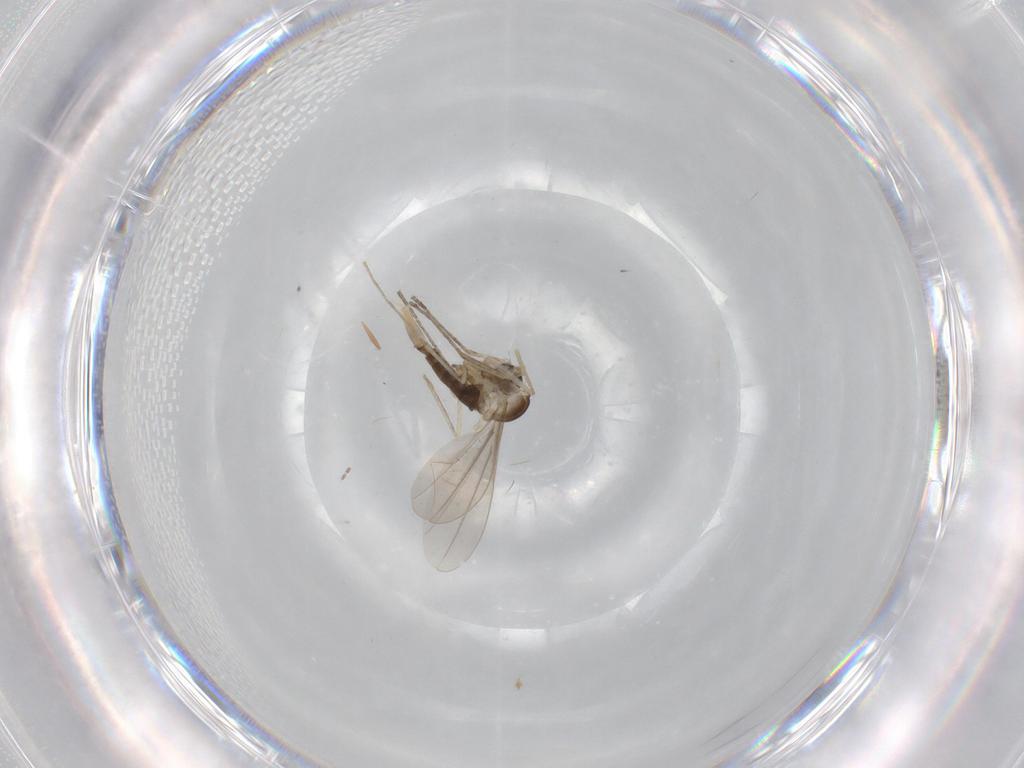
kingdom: Animalia
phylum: Arthropoda
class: Insecta
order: Diptera
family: Cecidomyiidae
